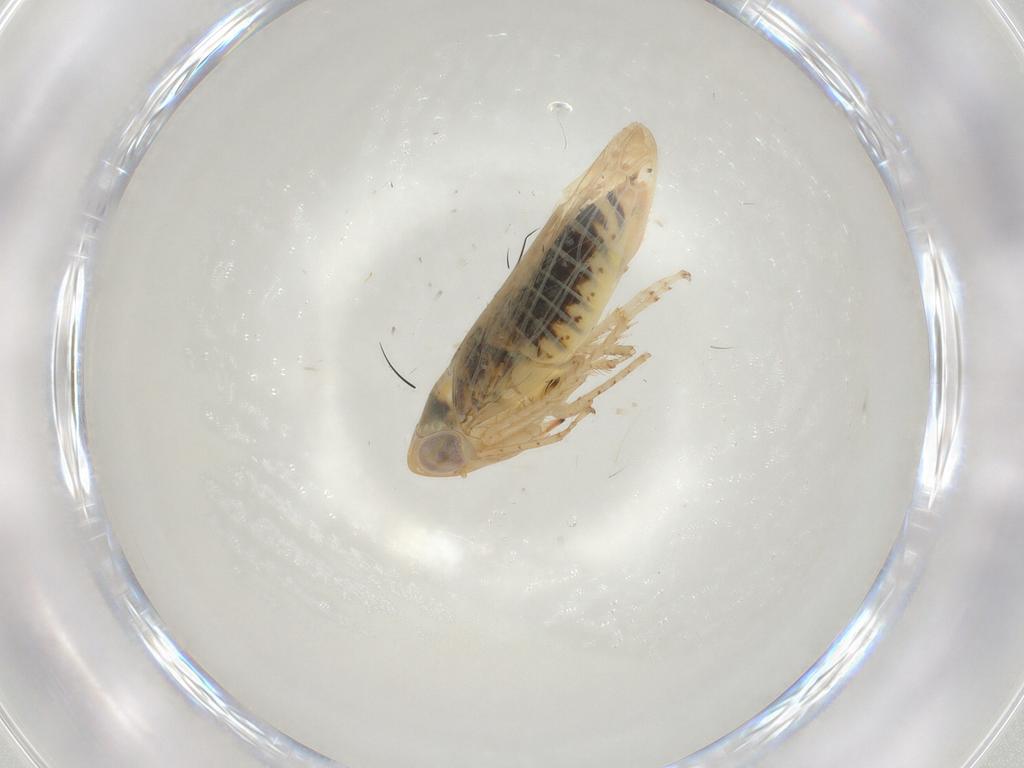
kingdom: Animalia
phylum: Arthropoda
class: Insecta
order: Hemiptera
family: Cicadellidae
